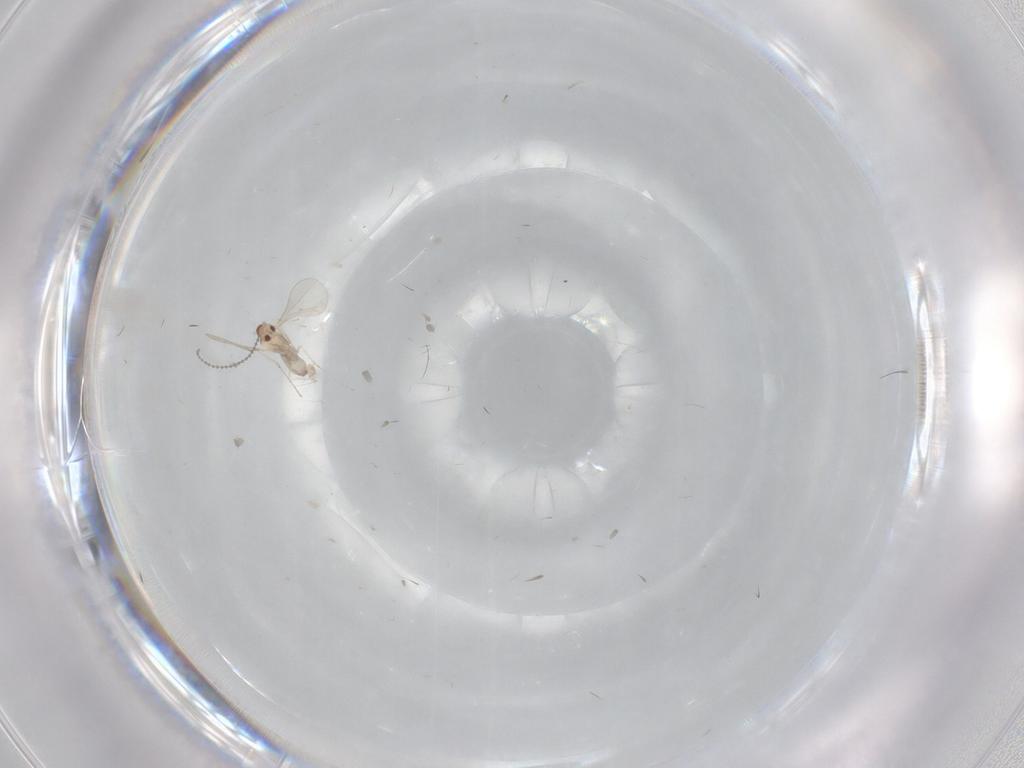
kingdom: Animalia
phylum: Arthropoda
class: Insecta
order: Diptera
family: Cecidomyiidae
